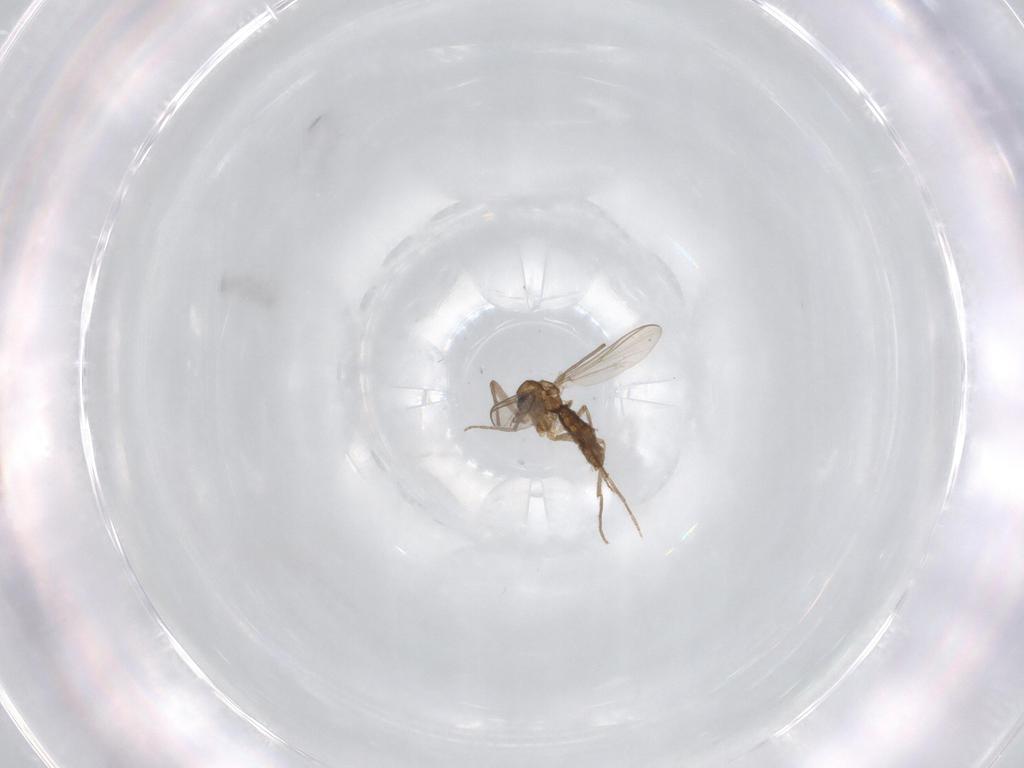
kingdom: Animalia
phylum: Arthropoda
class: Insecta
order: Diptera
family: Chironomidae
